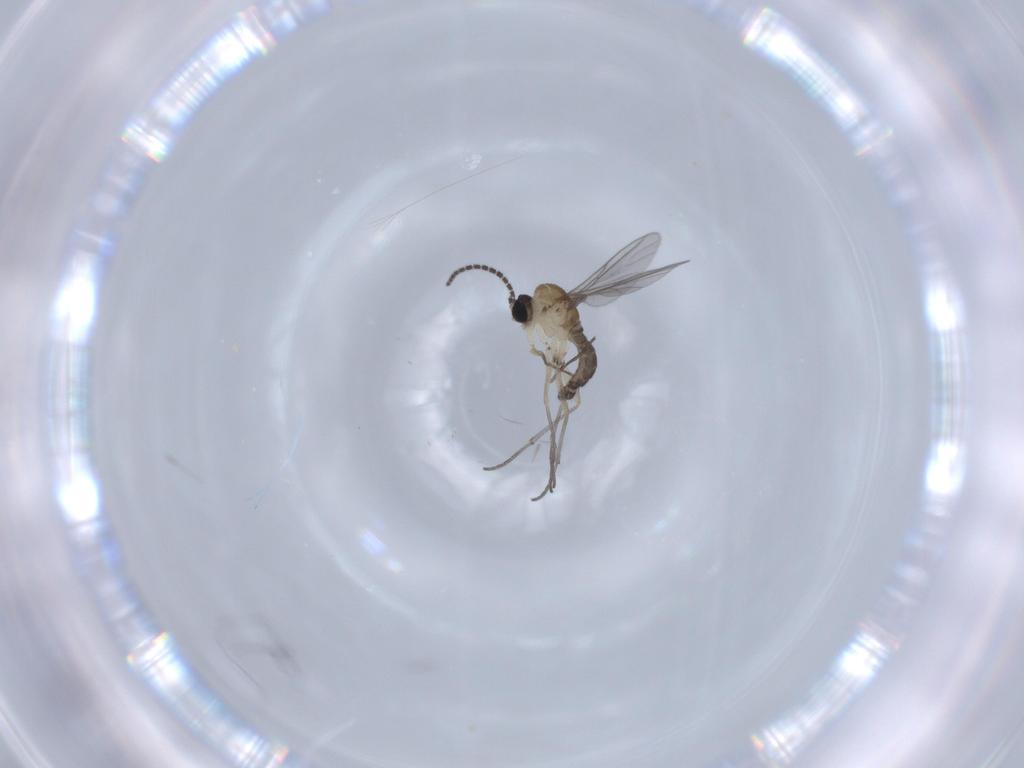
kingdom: Animalia
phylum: Arthropoda
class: Insecta
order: Diptera
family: Sciaridae
